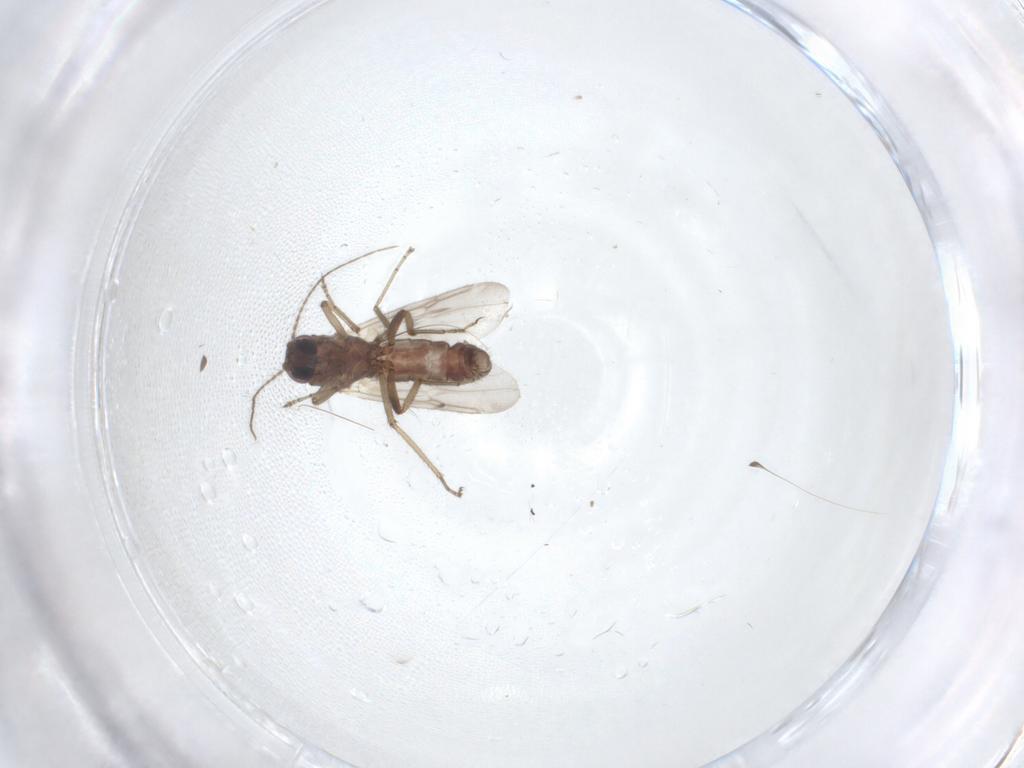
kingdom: Animalia
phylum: Arthropoda
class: Insecta
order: Diptera
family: Ceratopogonidae
